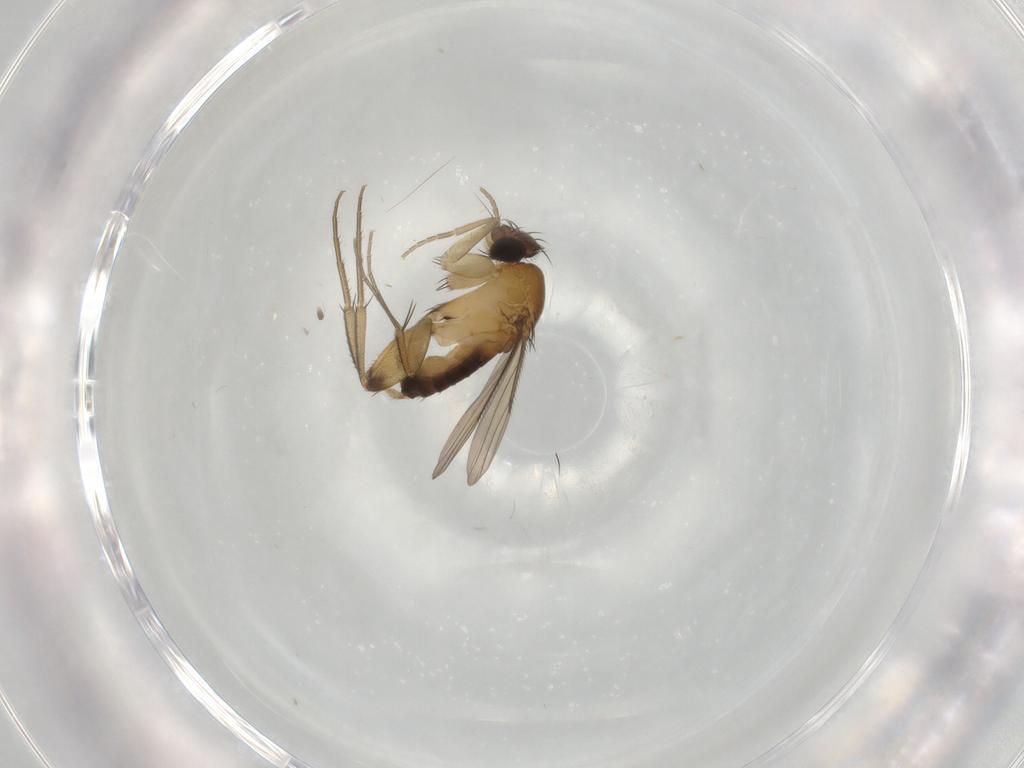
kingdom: Animalia
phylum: Arthropoda
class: Insecta
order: Diptera
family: Phoridae
